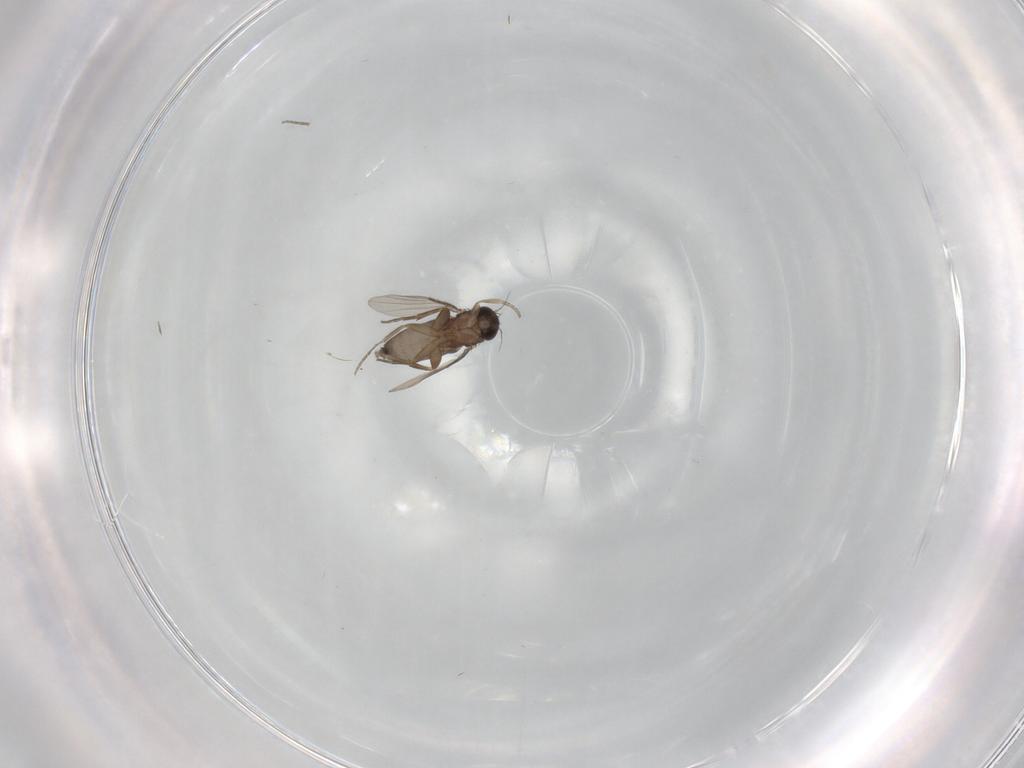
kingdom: Animalia
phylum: Arthropoda
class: Insecta
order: Diptera
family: Phoridae
